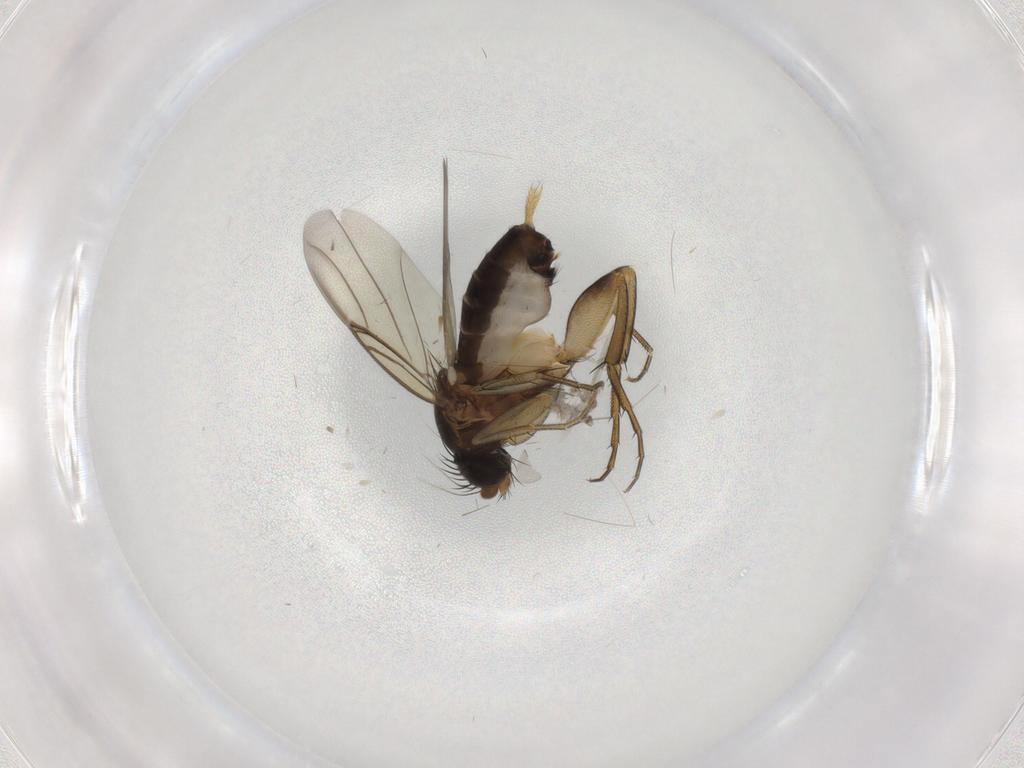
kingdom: Animalia
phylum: Arthropoda
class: Insecta
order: Diptera
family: Phoridae
